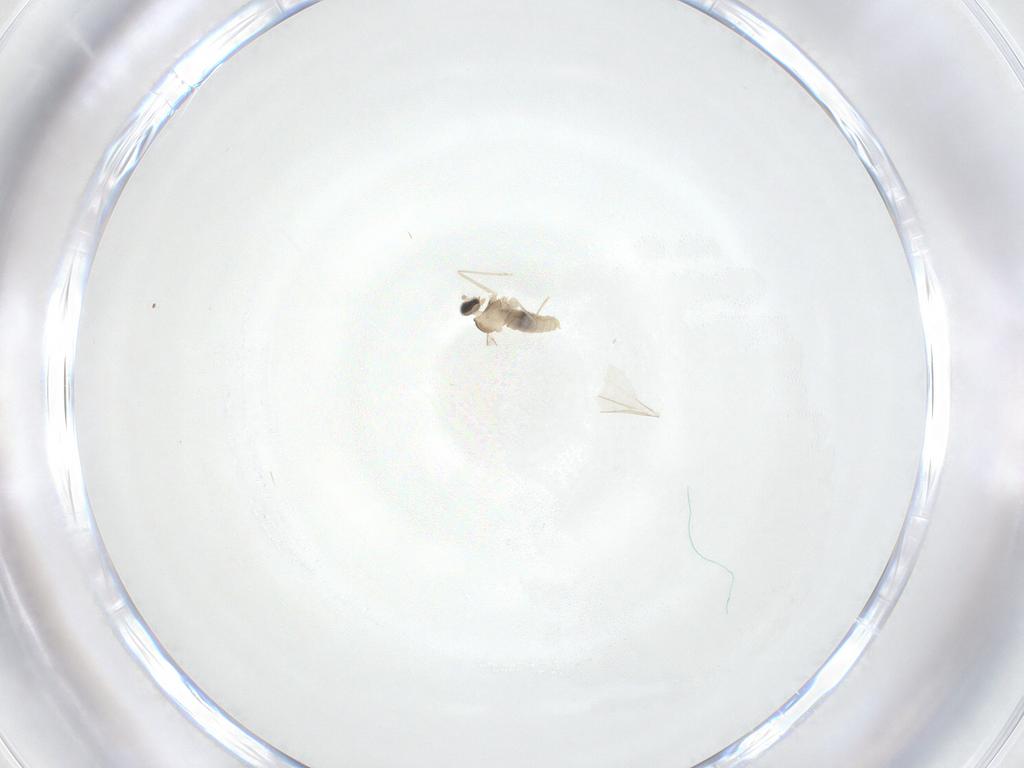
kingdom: Animalia
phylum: Arthropoda
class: Insecta
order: Diptera
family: Cecidomyiidae
